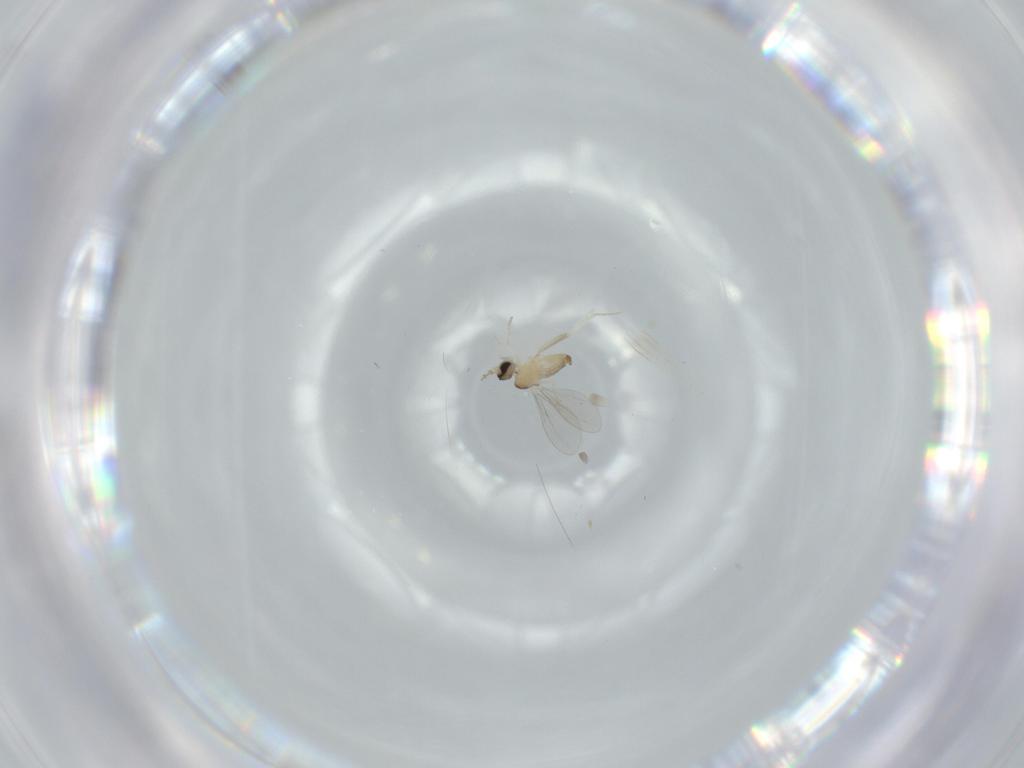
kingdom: Animalia
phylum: Arthropoda
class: Insecta
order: Diptera
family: Cecidomyiidae
